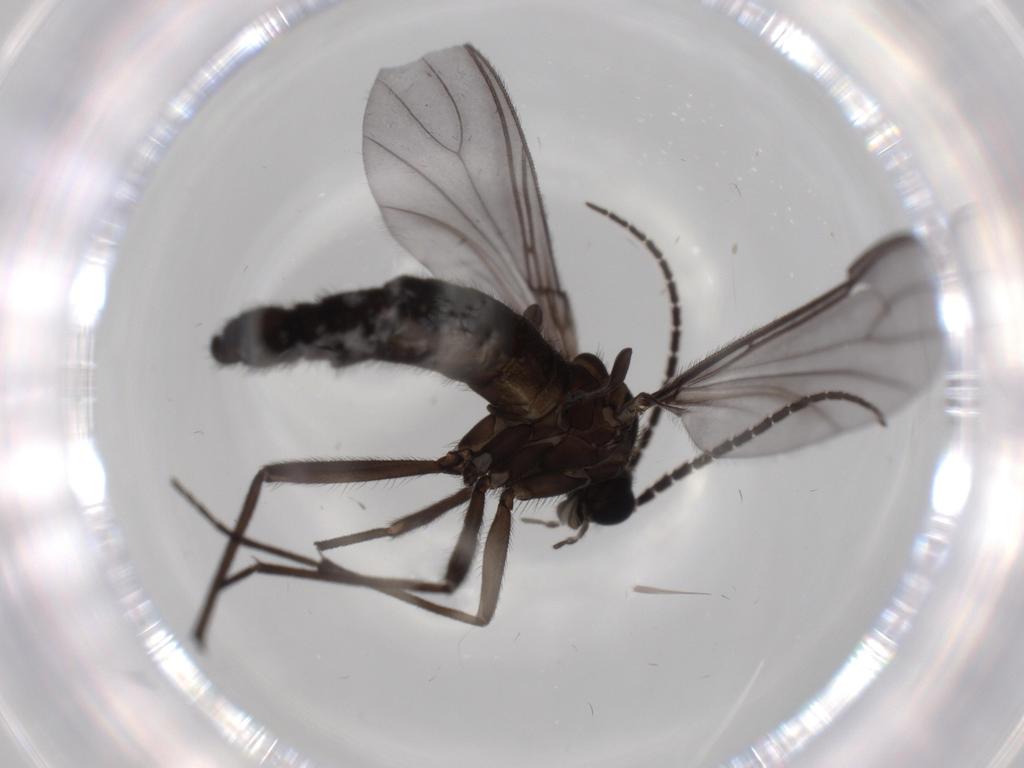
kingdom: Animalia
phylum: Arthropoda
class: Insecta
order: Diptera
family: Sciaridae
